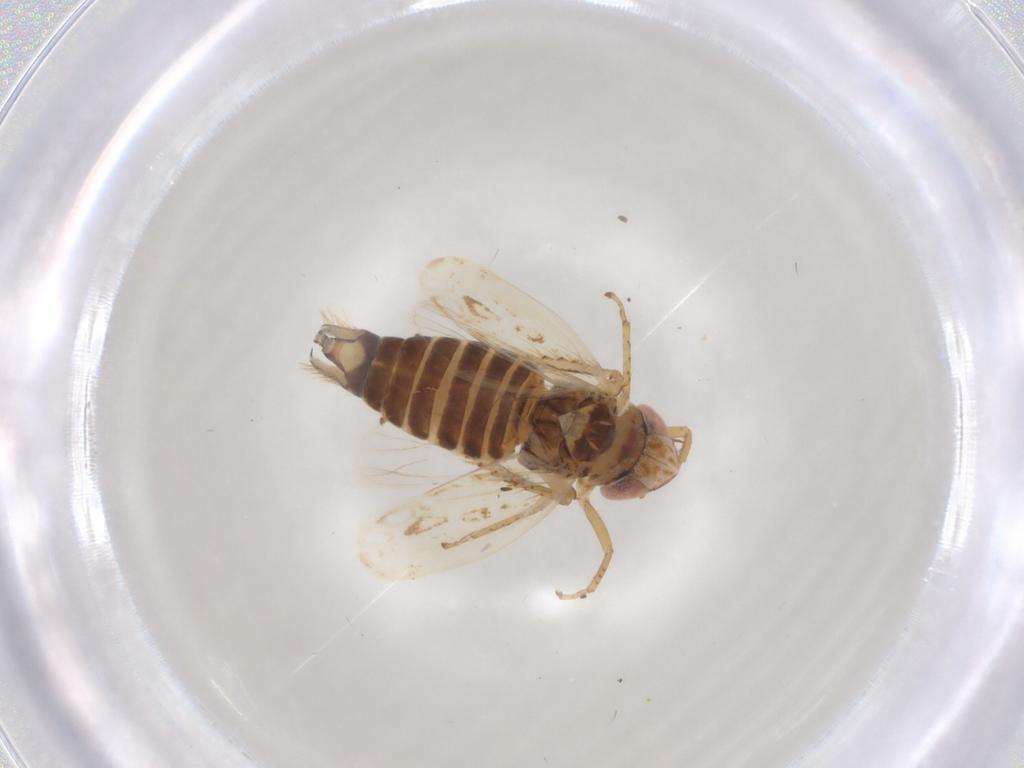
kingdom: Animalia
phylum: Arthropoda
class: Insecta
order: Hemiptera
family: Cicadellidae
